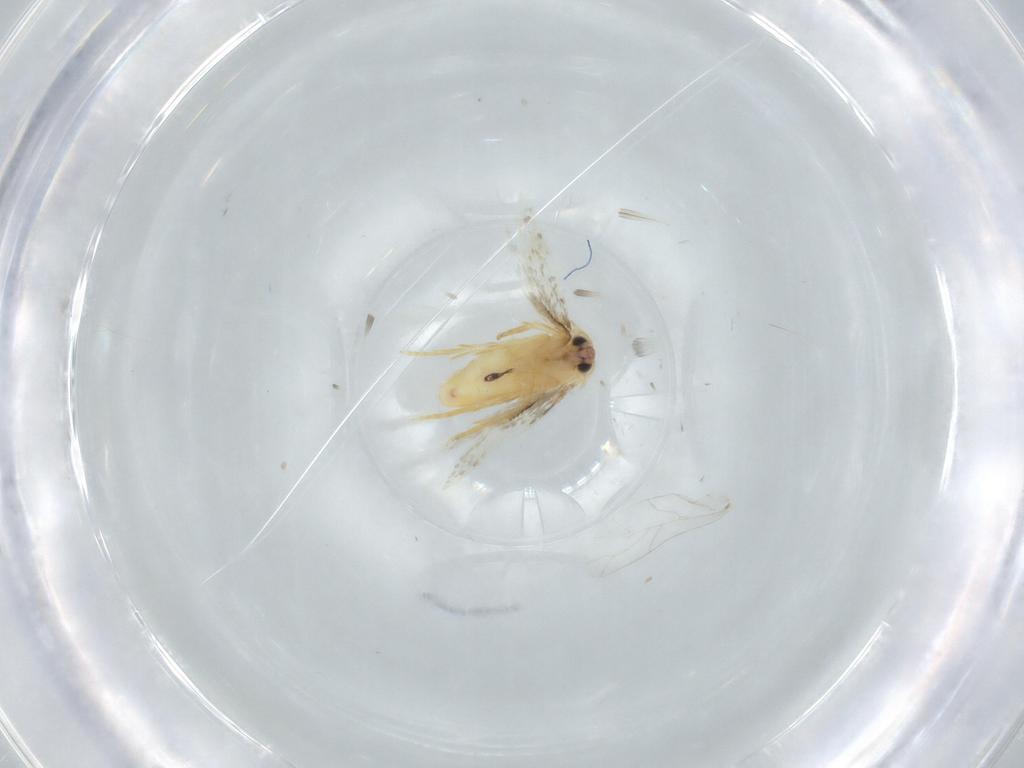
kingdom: Animalia
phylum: Arthropoda
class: Insecta
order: Lepidoptera
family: Nepticulidae
